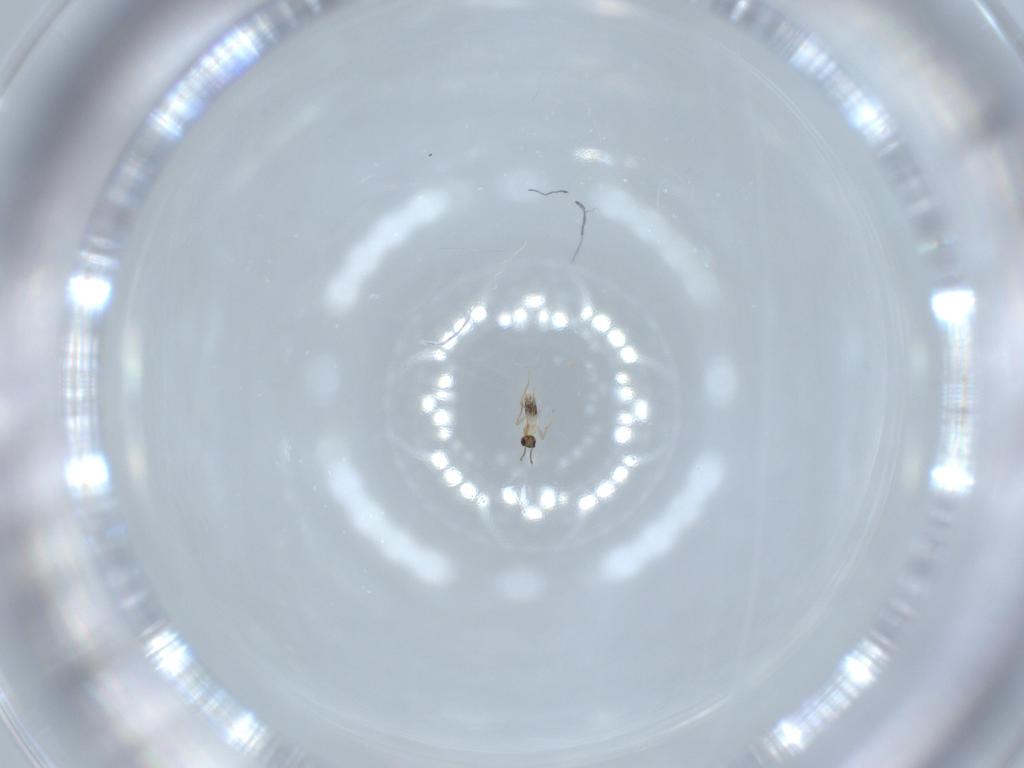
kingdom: Animalia
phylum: Arthropoda
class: Insecta
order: Hymenoptera
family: Mymaridae
